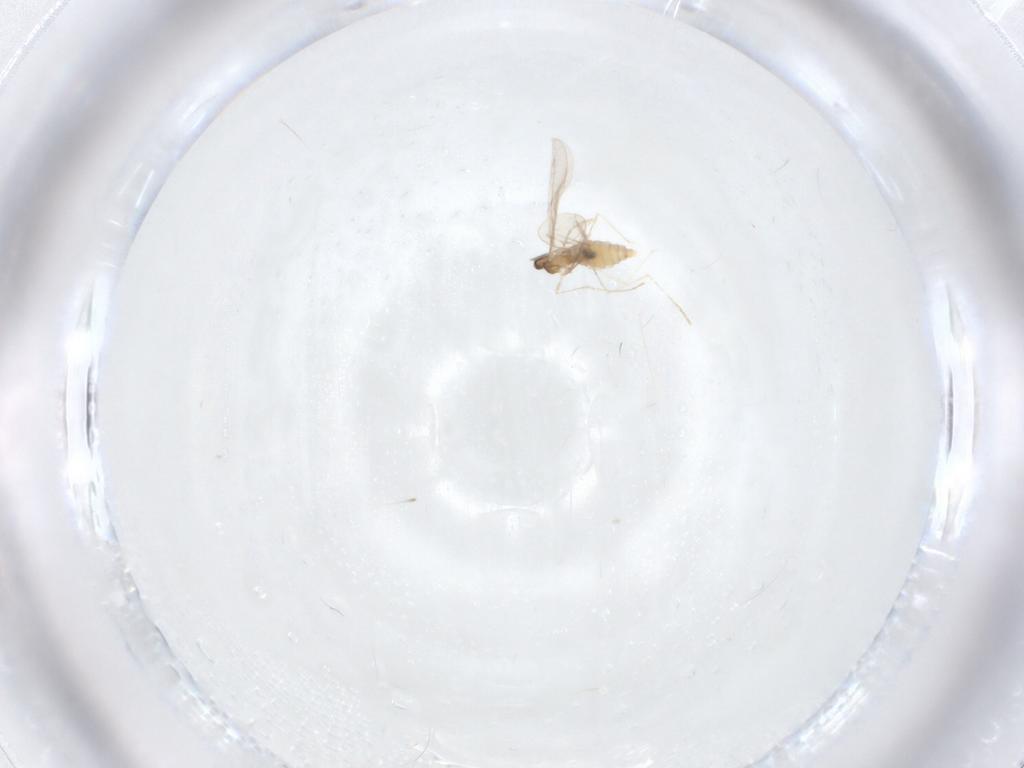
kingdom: Animalia
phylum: Arthropoda
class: Insecta
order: Diptera
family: Cecidomyiidae
